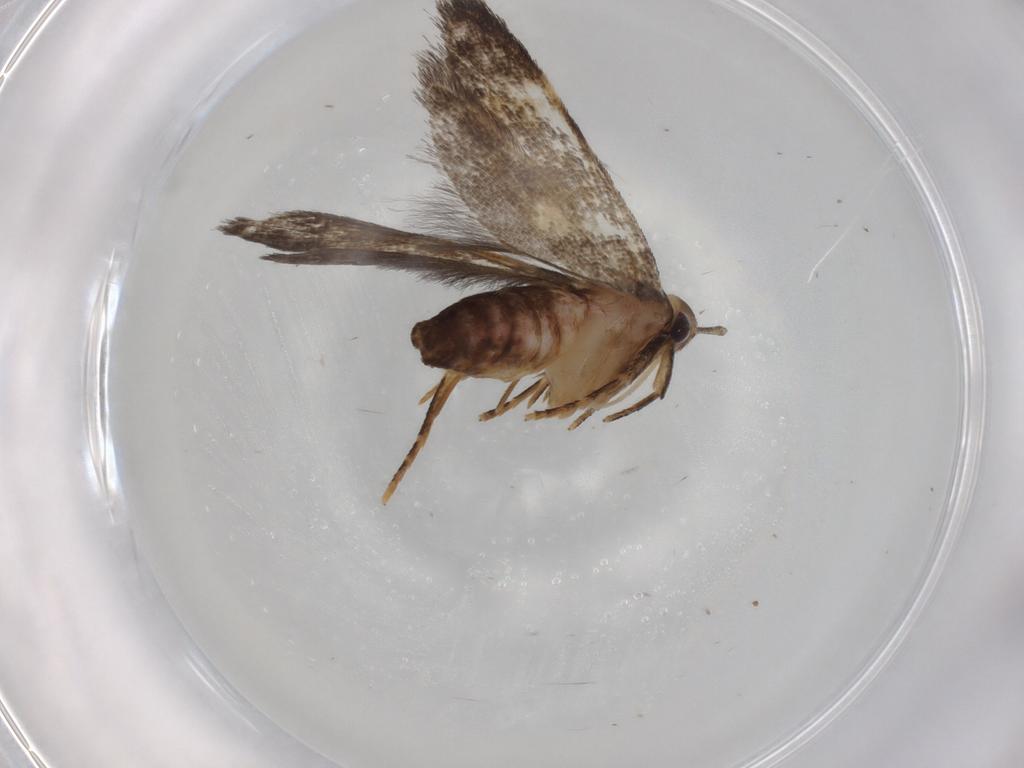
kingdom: Animalia
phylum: Arthropoda
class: Insecta
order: Lepidoptera
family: Cosmopterigidae
